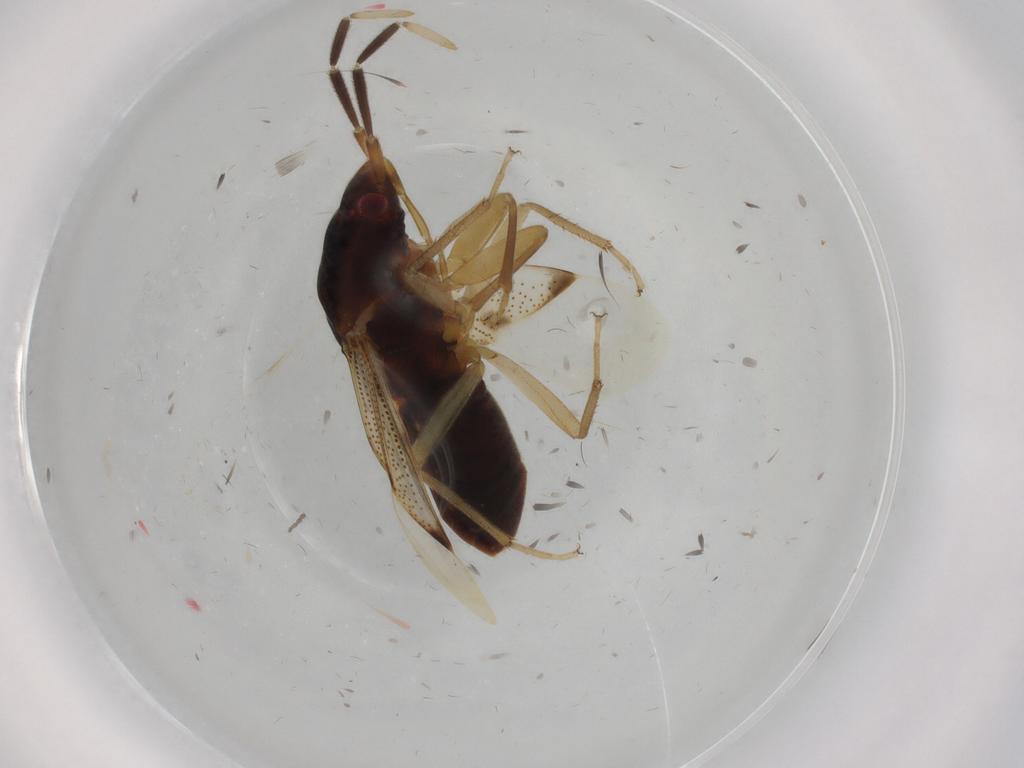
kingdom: Animalia
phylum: Arthropoda
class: Insecta
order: Hemiptera
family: Rhyparochromidae
